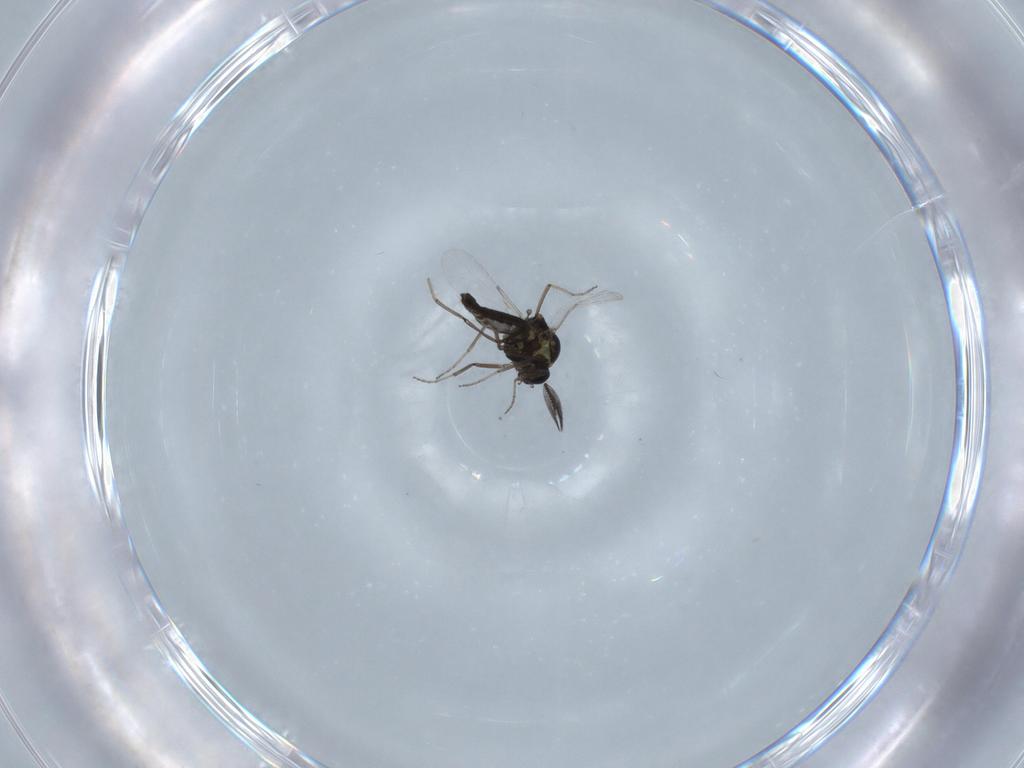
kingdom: Animalia
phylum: Arthropoda
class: Insecta
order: Diptera
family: Ceratopogonidae
